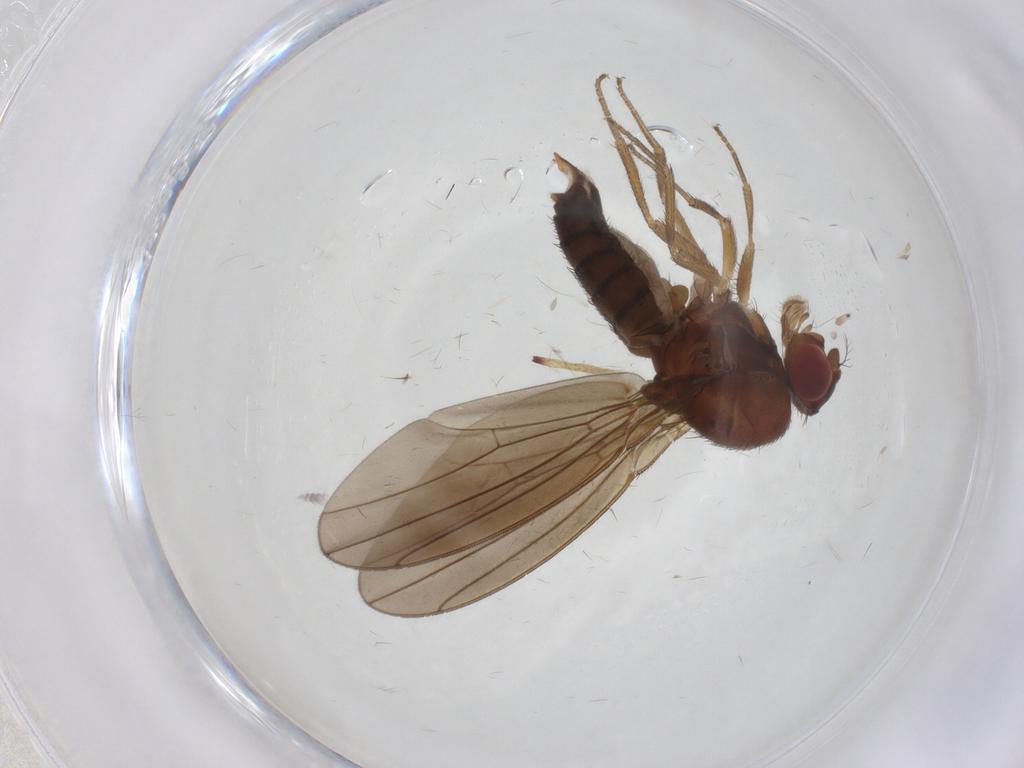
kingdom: Animalia
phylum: Arthropoda
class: Insecta
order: Diptera
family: Drosophilidae
